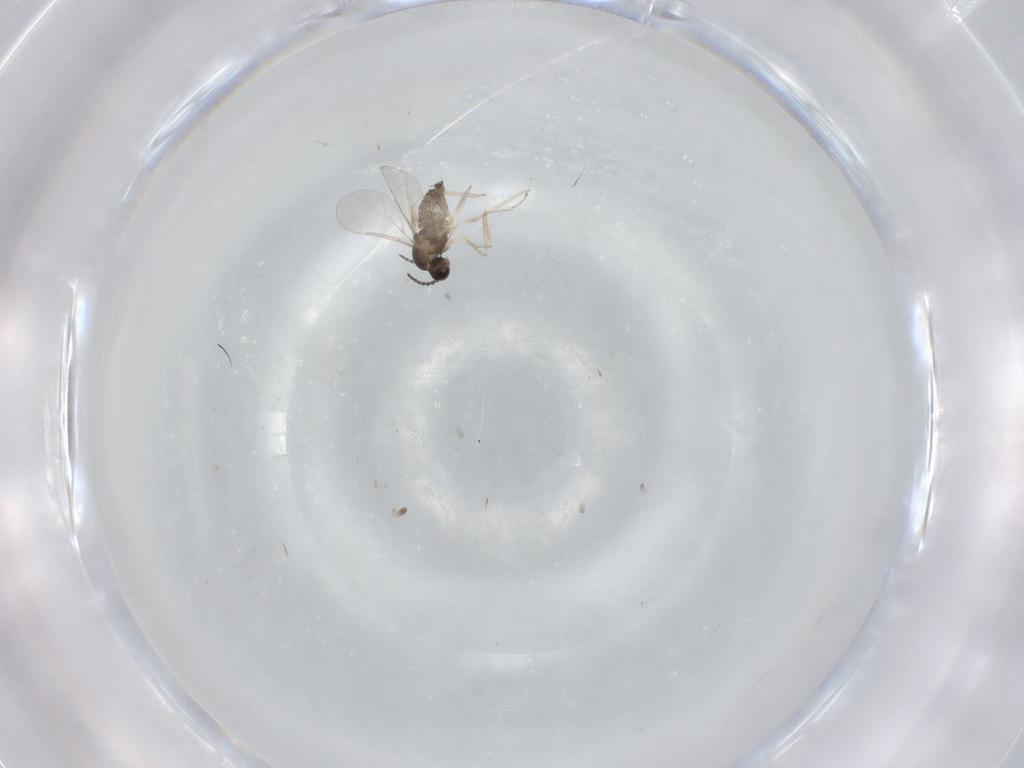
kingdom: Animalia
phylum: Arthropoda
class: Insecta
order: Diptera
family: Cecidomyiidae
